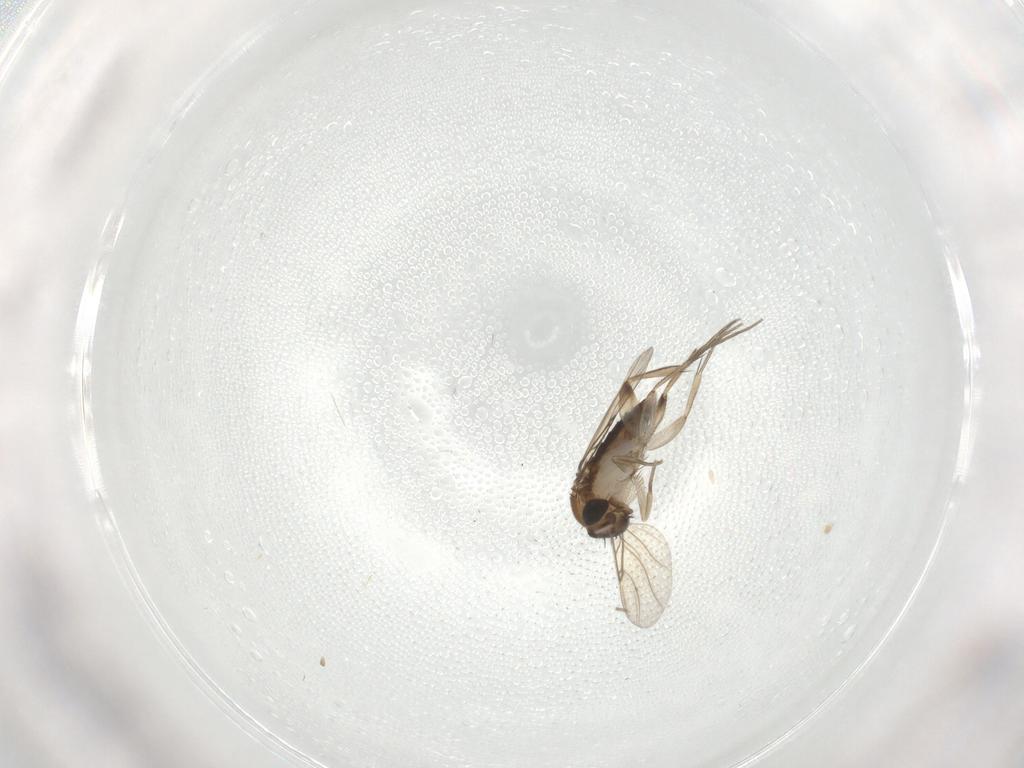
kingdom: Animalia
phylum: Arthropoda
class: Insecta
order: Diptera
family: Phoridae
